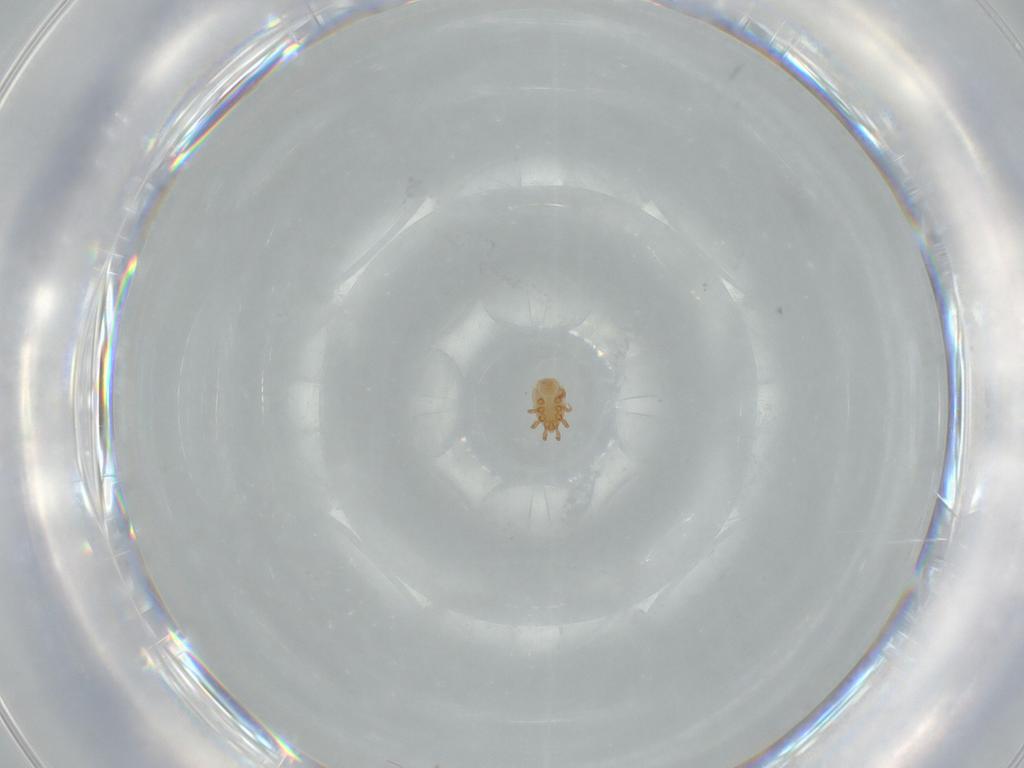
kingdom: Animalia
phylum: Arthropoda
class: Arachnida
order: Mesostigmata
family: Dinychidae
